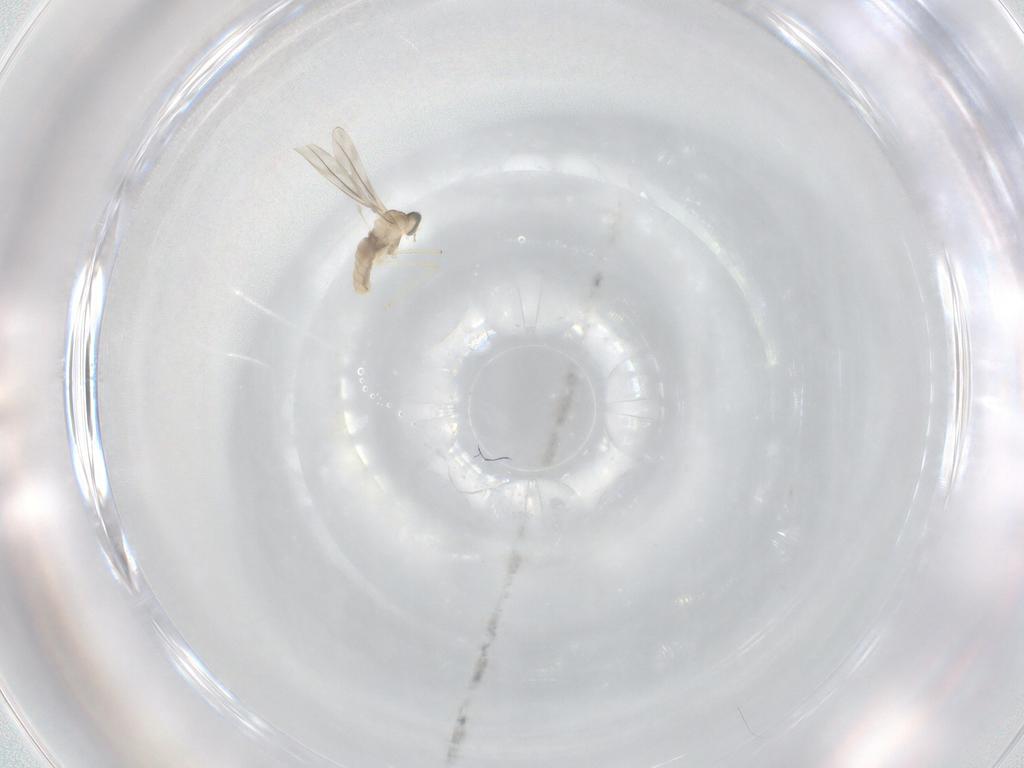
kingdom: Animalia
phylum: Arthropoda
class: Insecta
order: Diptera
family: Cecidomyiidae
